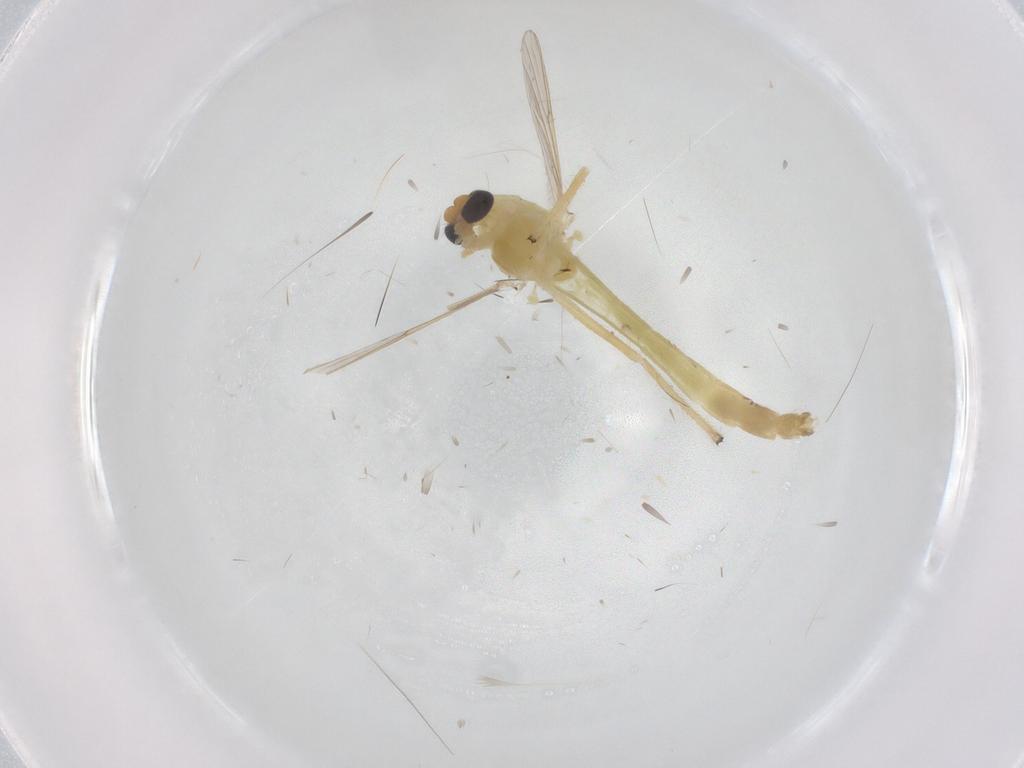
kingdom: Animalia
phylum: Arthropoda
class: Insecta
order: Diptera
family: Chironomidae
